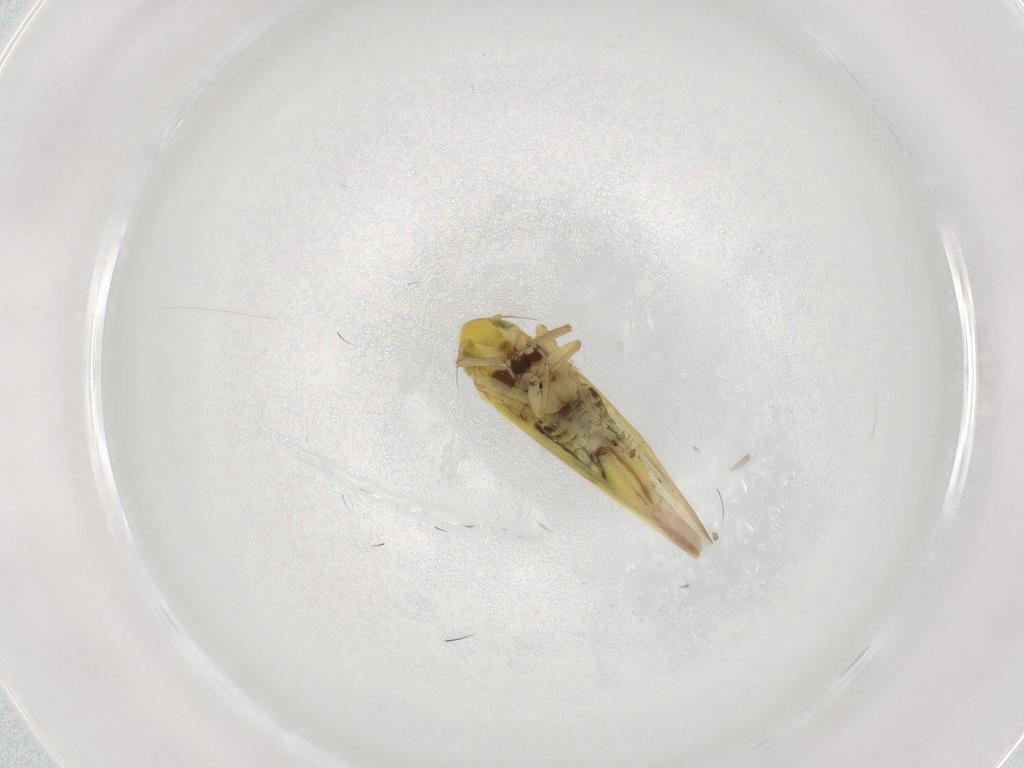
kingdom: Animalia
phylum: Arthropoda
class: Insecta
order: Hemiptera
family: Cicadellidae
